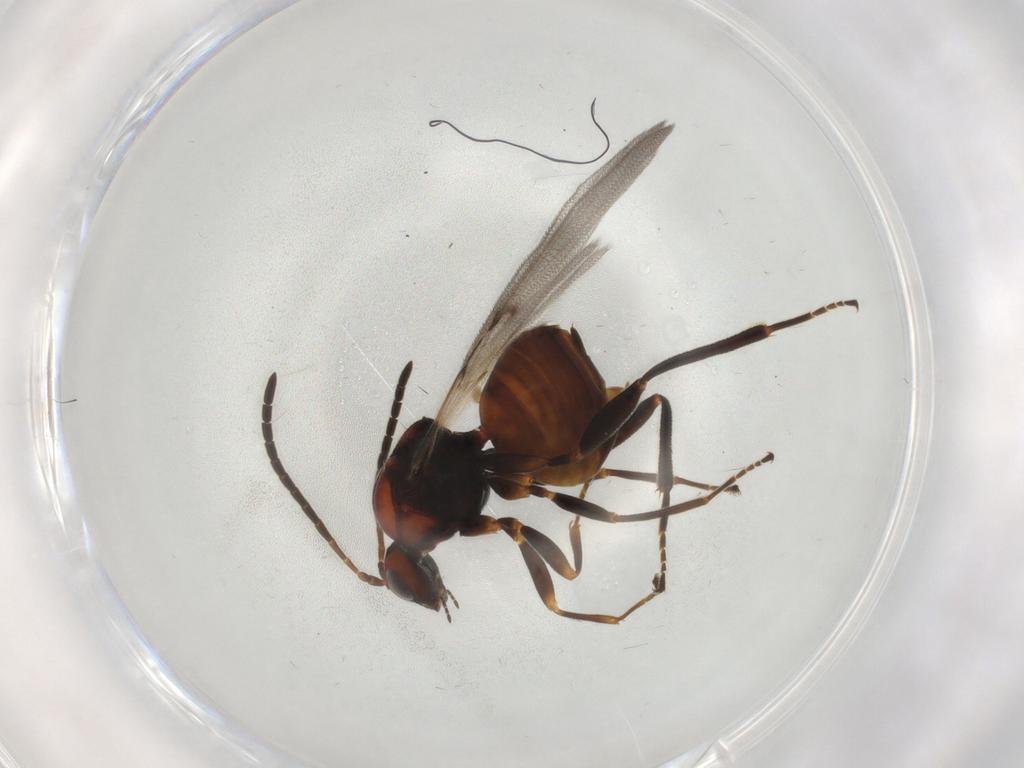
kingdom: Animalia
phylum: Arthropoda
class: Insecta
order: Hymenoptera
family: Cynipidae
